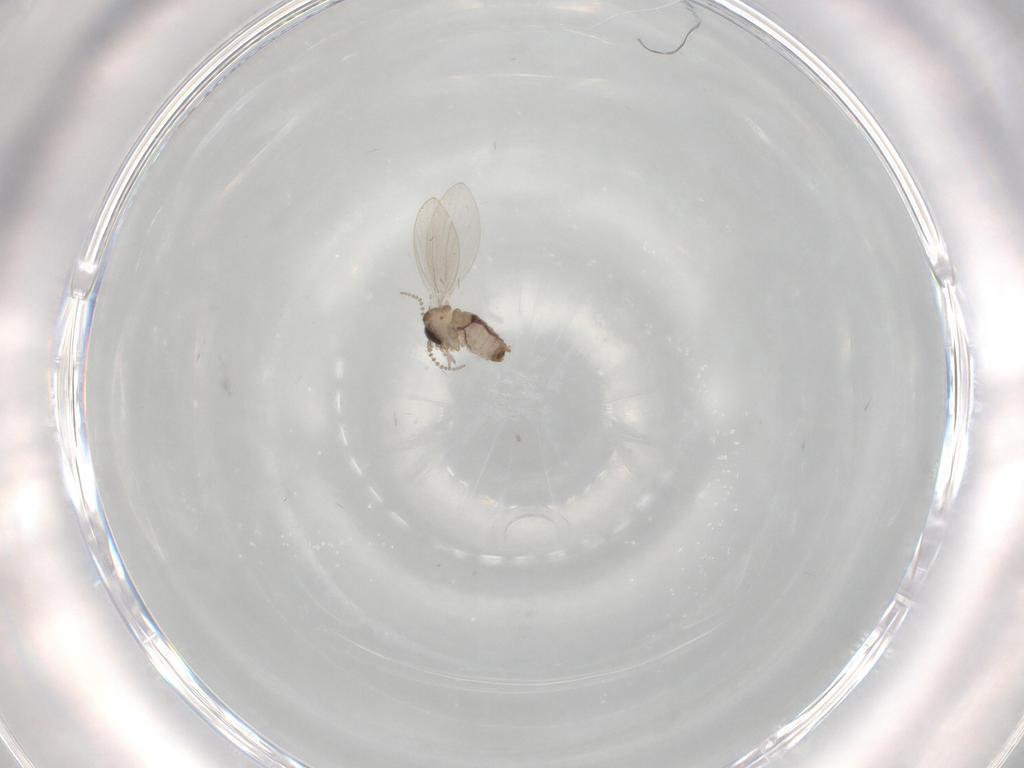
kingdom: Animalia
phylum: Arthropoda
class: Insecta
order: Diptera
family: Psychodidae
